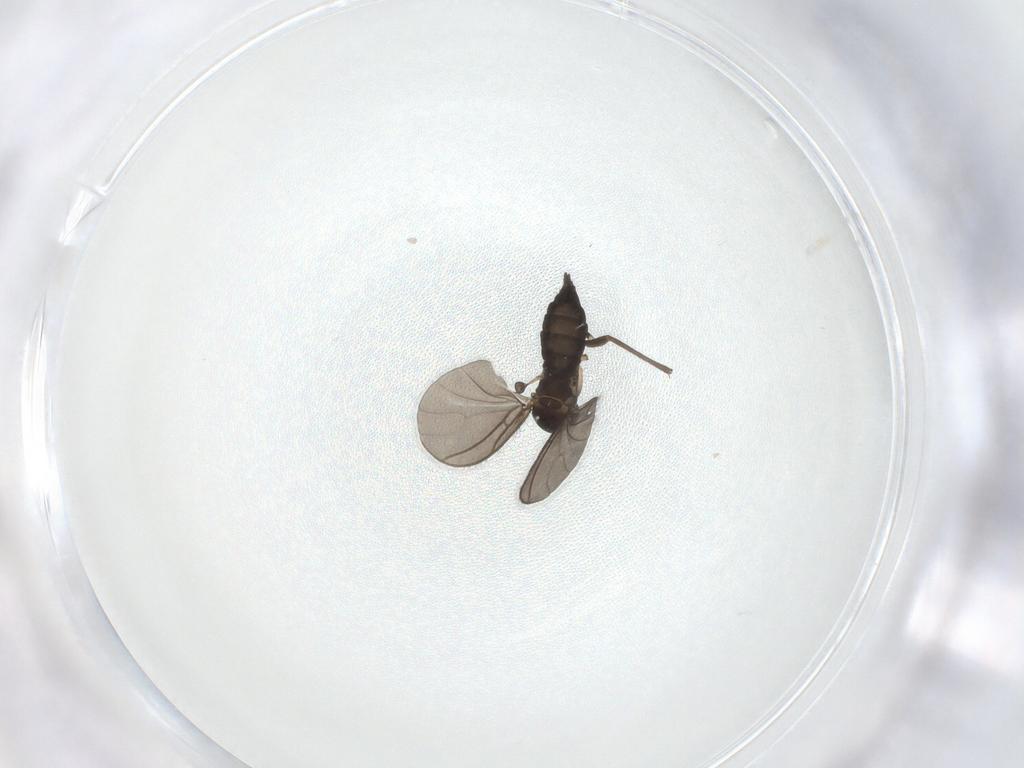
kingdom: Animalia
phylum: Arthropoda
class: Insecta
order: Diptera
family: Sciaridae
